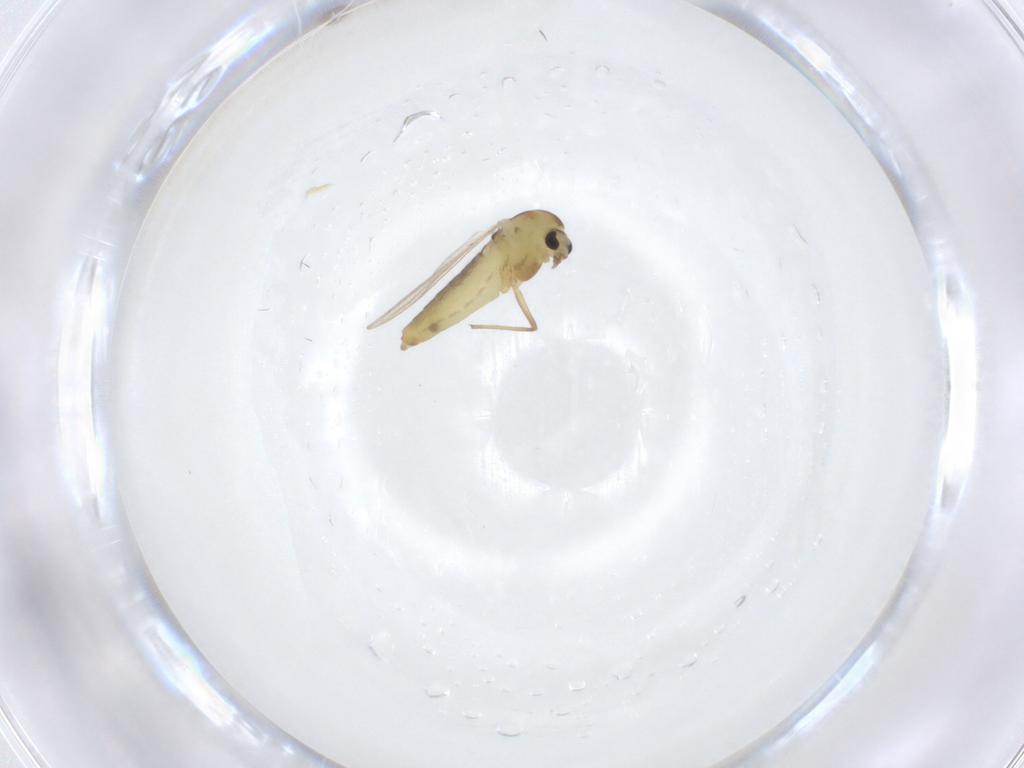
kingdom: Animalia
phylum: Arthropoda
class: Insecta
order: Diptera
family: Chironomidae
